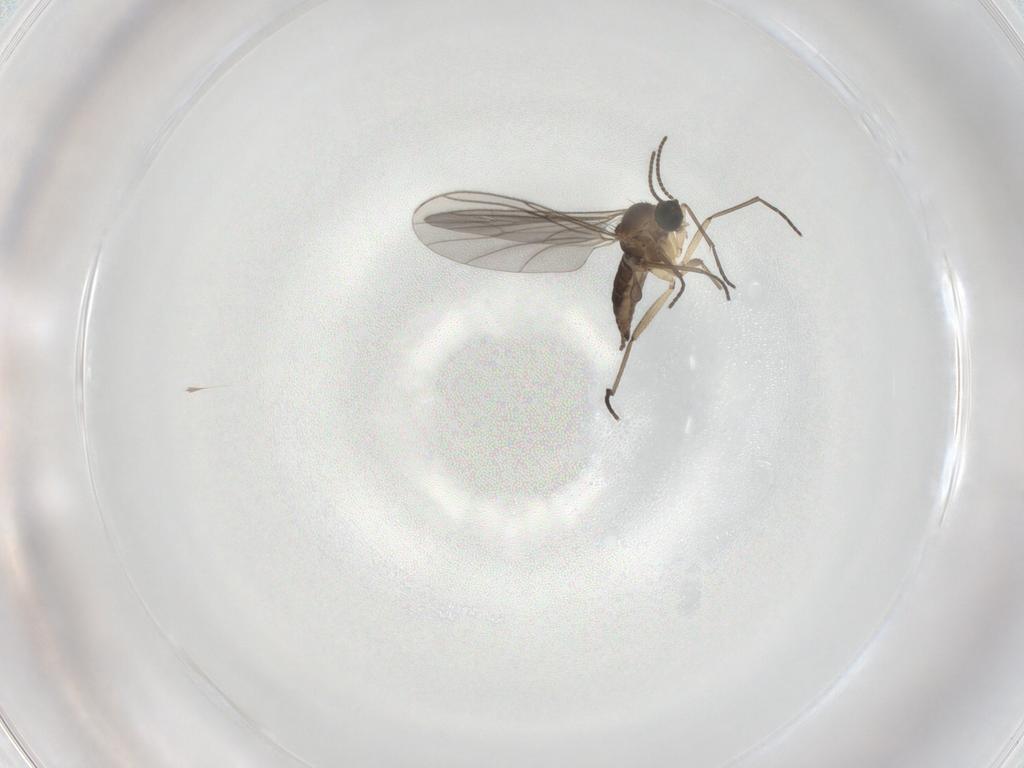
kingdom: Animalia
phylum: Arthropoda
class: Insecta
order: Diptera
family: Sciaridae
